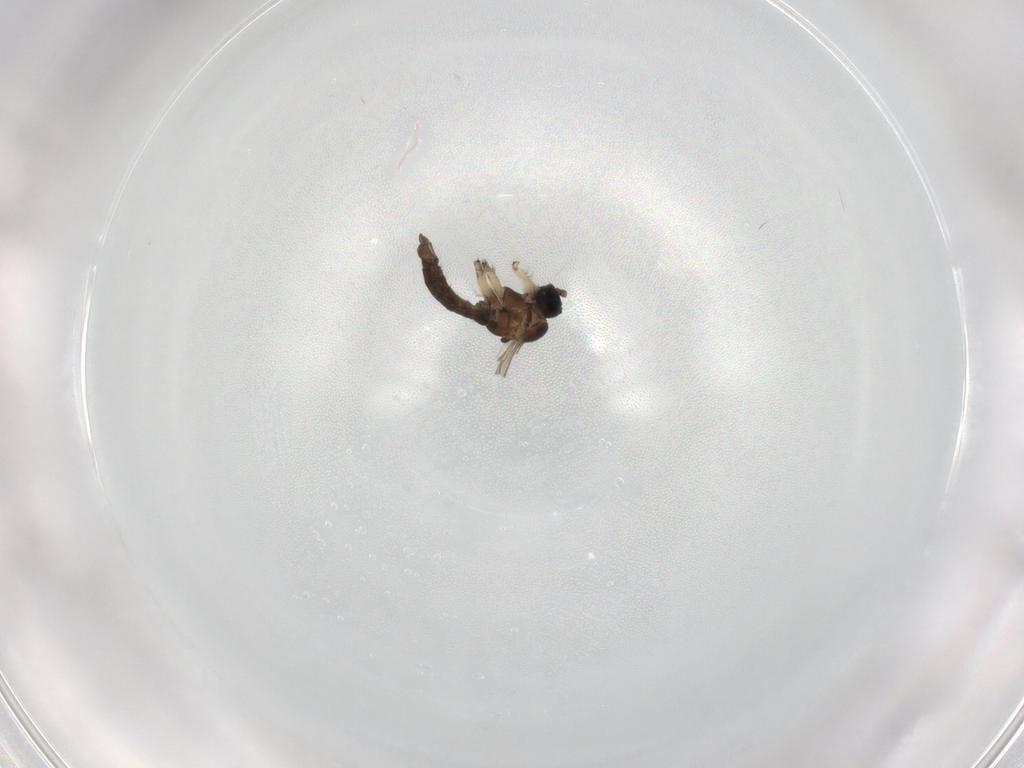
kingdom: Animalia
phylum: Arthropoda
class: Insecta
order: Diptera
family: Sciaridae
